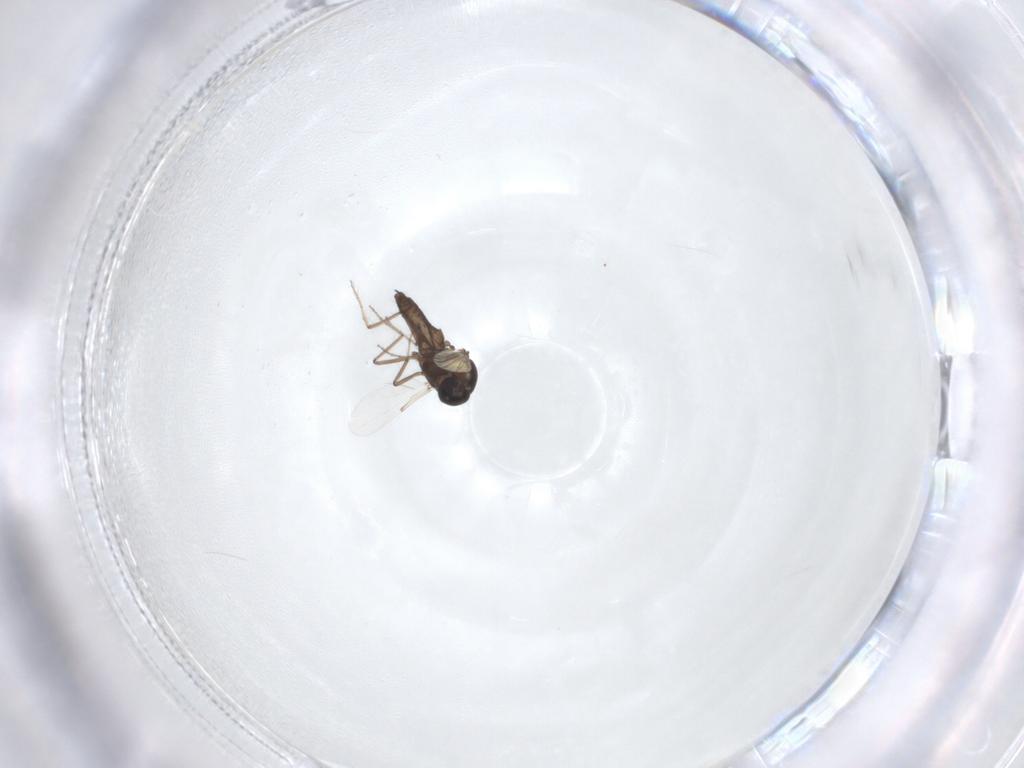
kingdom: Animalia
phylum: Arthropoda
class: Insecta
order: Diptera
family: Ceratopogonidae
